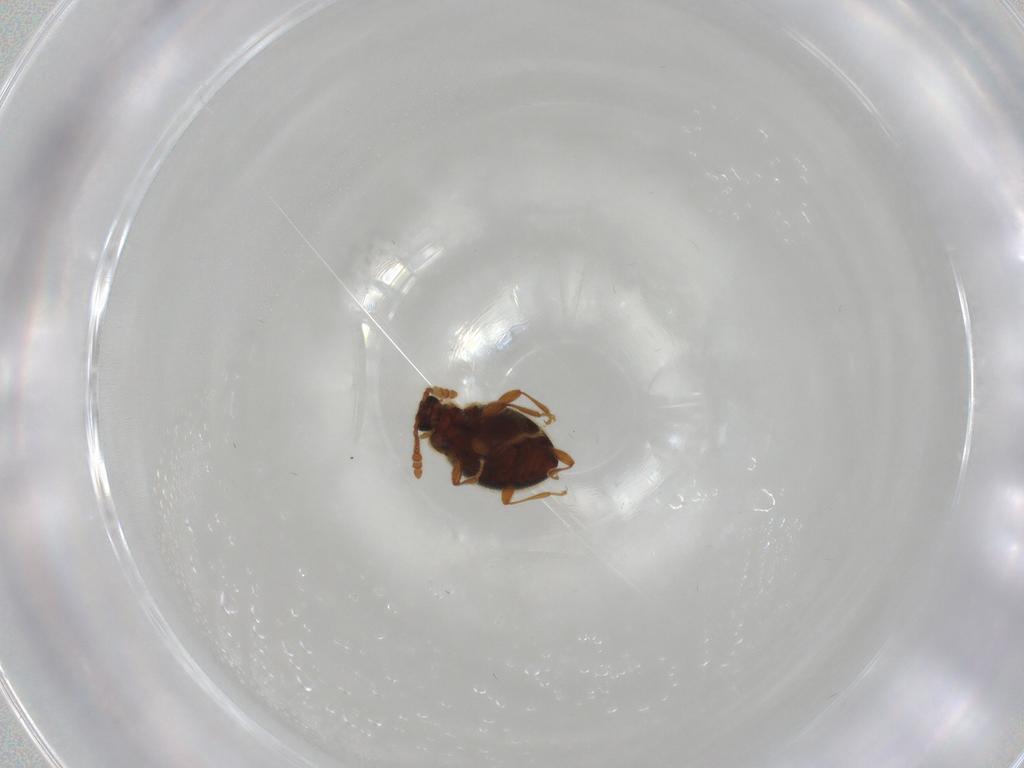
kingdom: Animalia
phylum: Arthropoda
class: Insecta
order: Coleoptera
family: Staphylinidae
